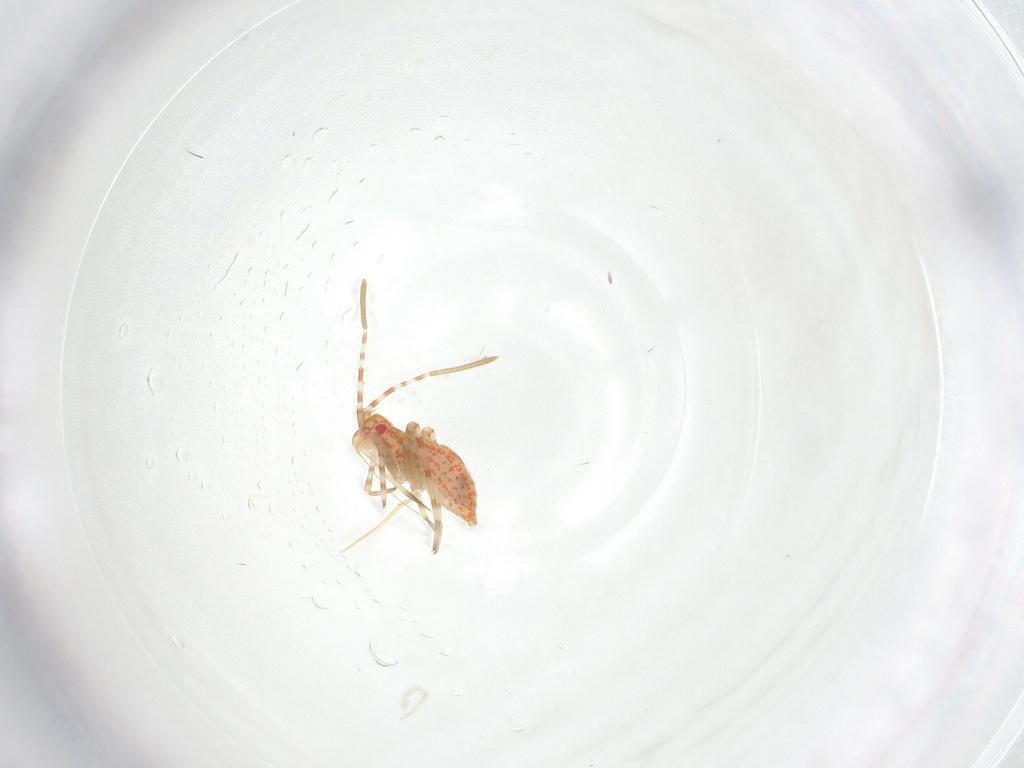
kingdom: Animalia
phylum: Arthropoda
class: Insecta
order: Hemiptera
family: Miridae
